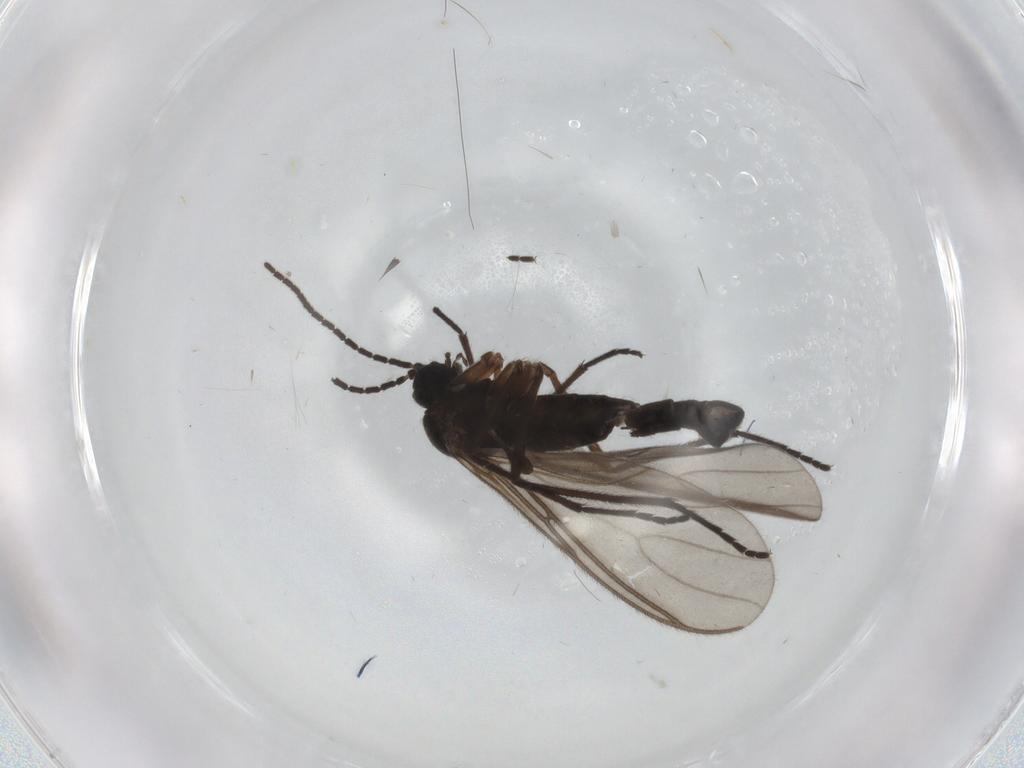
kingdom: Animalia
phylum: Arthropoda
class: Insecta
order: Diptera
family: Sciaridae
